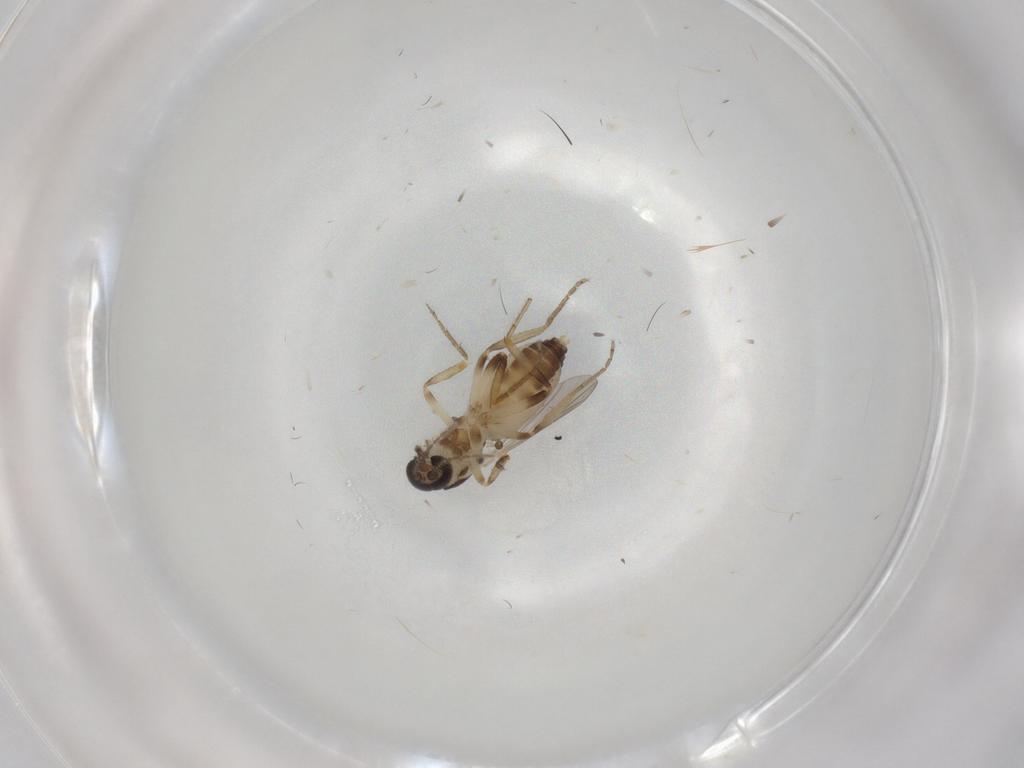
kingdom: Animalia
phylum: Arthropoda
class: Insecta
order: Diptera
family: Ceratopogonidae
